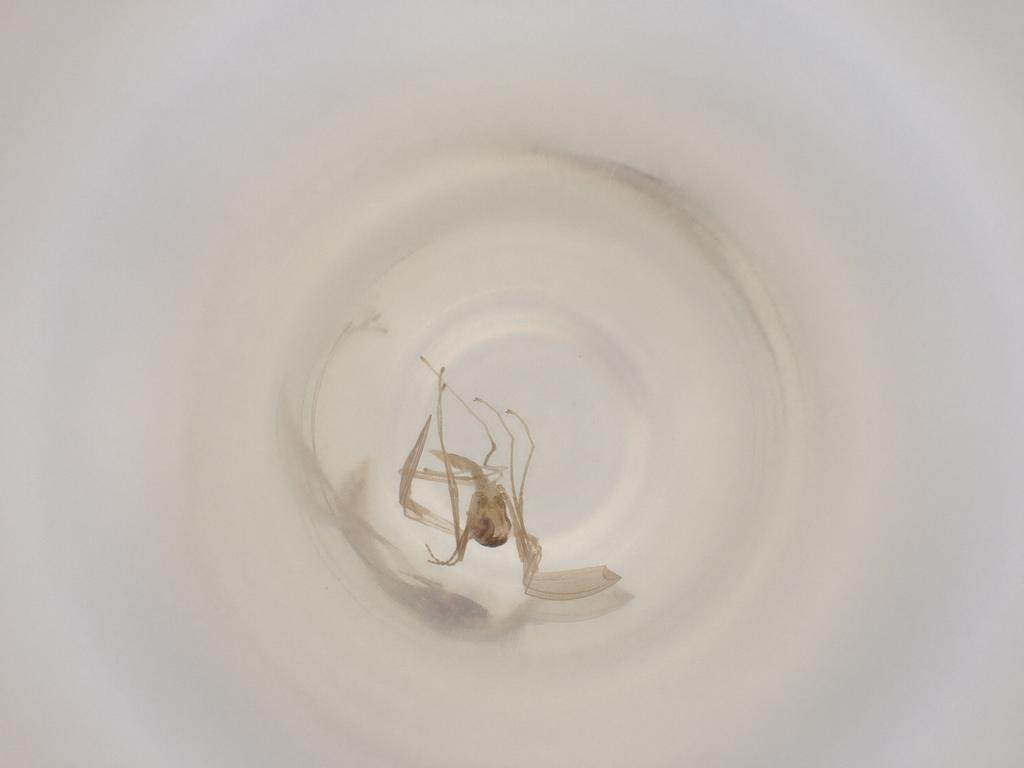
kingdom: Animalia
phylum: Arthropoda
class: Insecta
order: Diptera
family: Cecidomyiidae
